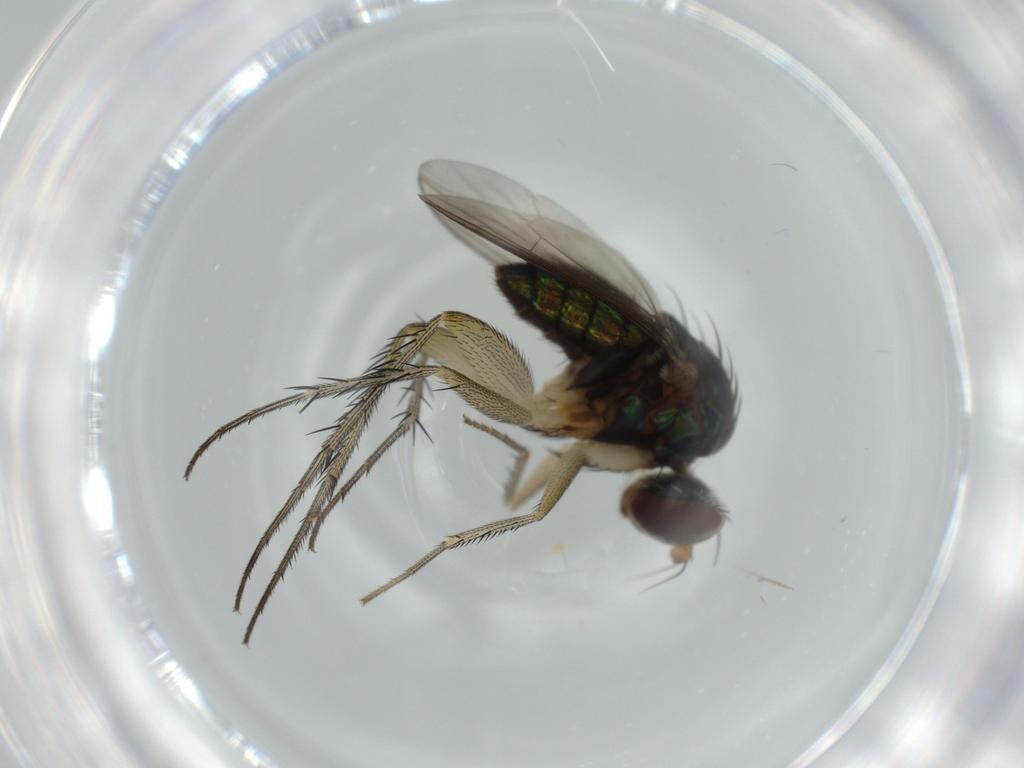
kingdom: Animalia
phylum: Arthropoda
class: Insecta
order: Diptera
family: Dolichopodidae
